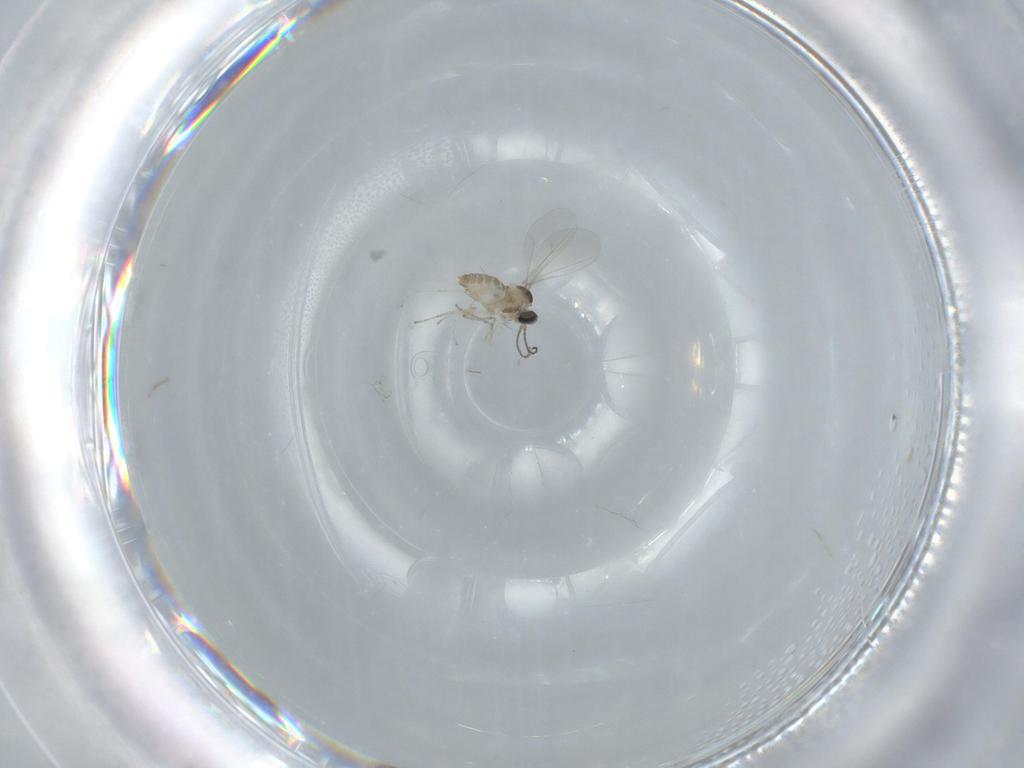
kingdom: Animalia
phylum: Arthropoda
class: Insecta
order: Diptera
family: Cecidomyiidae
